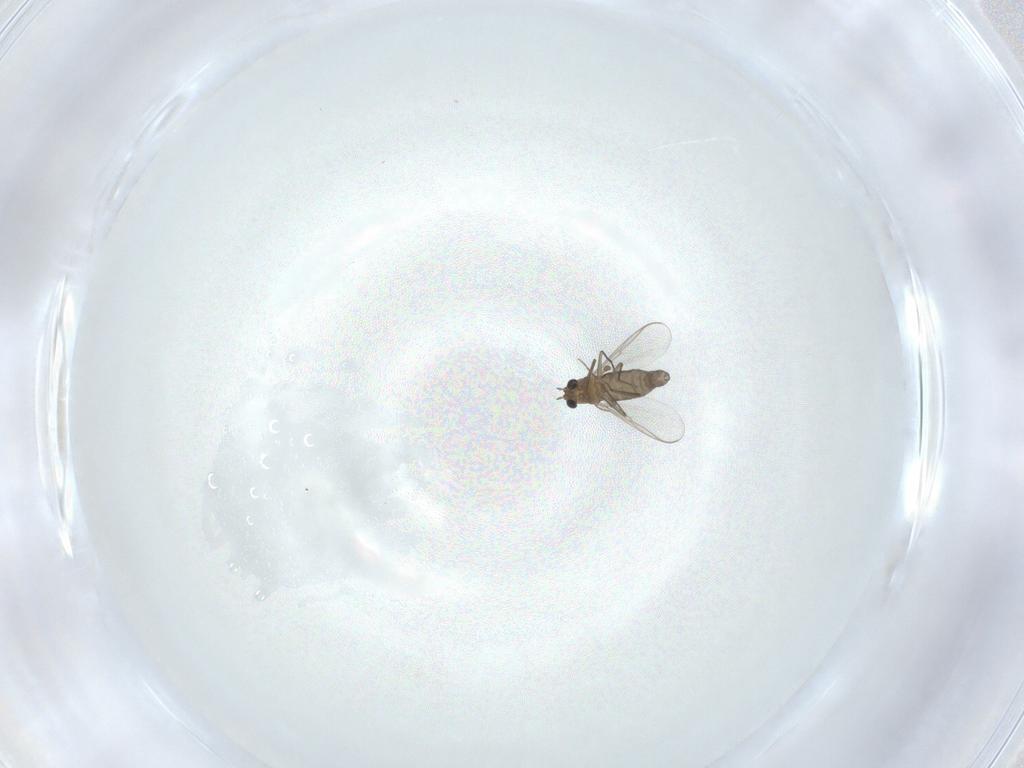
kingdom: Animalia
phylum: Arthropoda
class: Insecta
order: Diptera
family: Chironomidae
